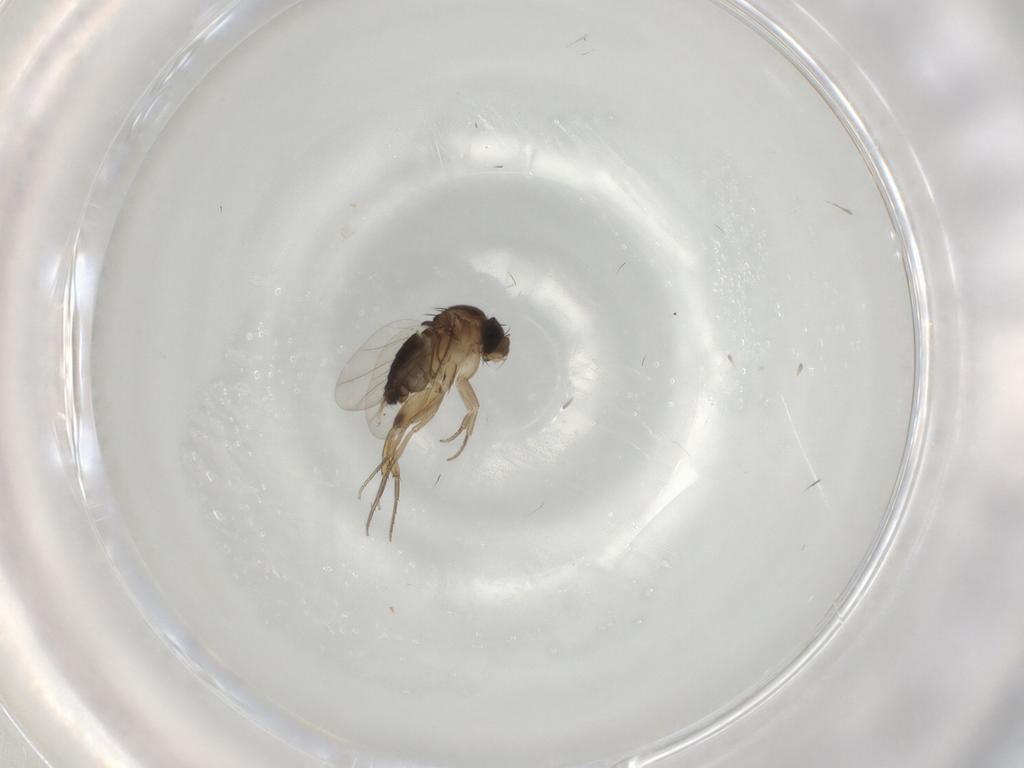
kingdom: Animalia
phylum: Arthropoda
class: Insecta
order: Diptera
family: Phoridae
